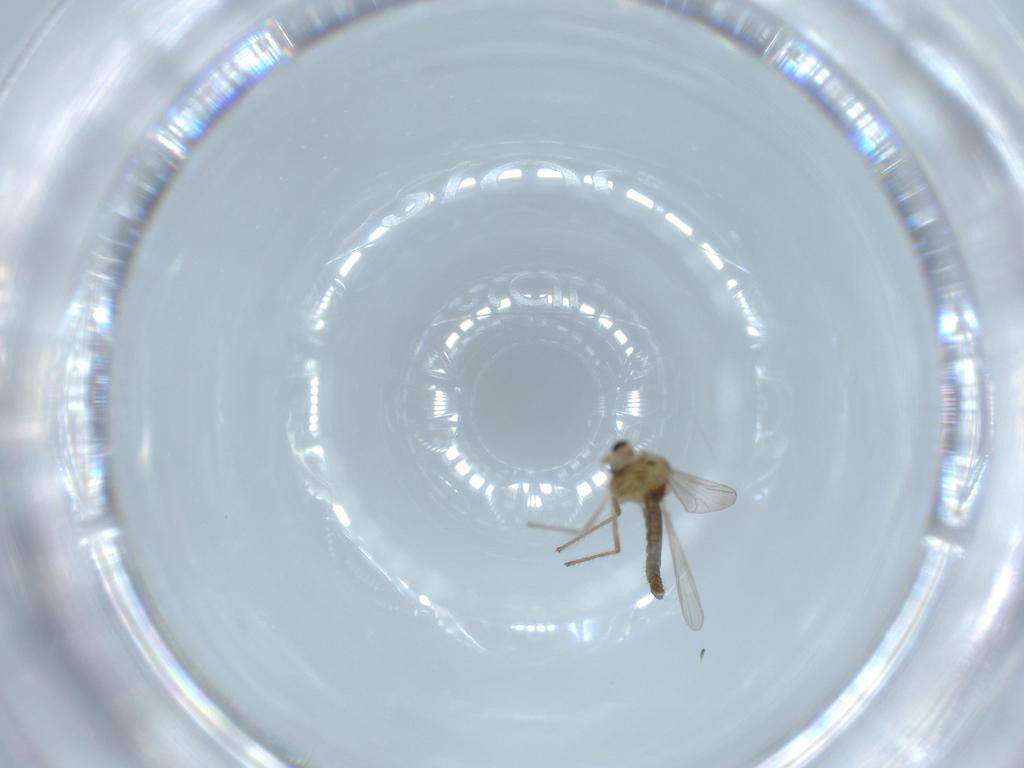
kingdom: Animalia
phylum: Arthropoda
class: Insecta
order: Diptera
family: Chironomidae
